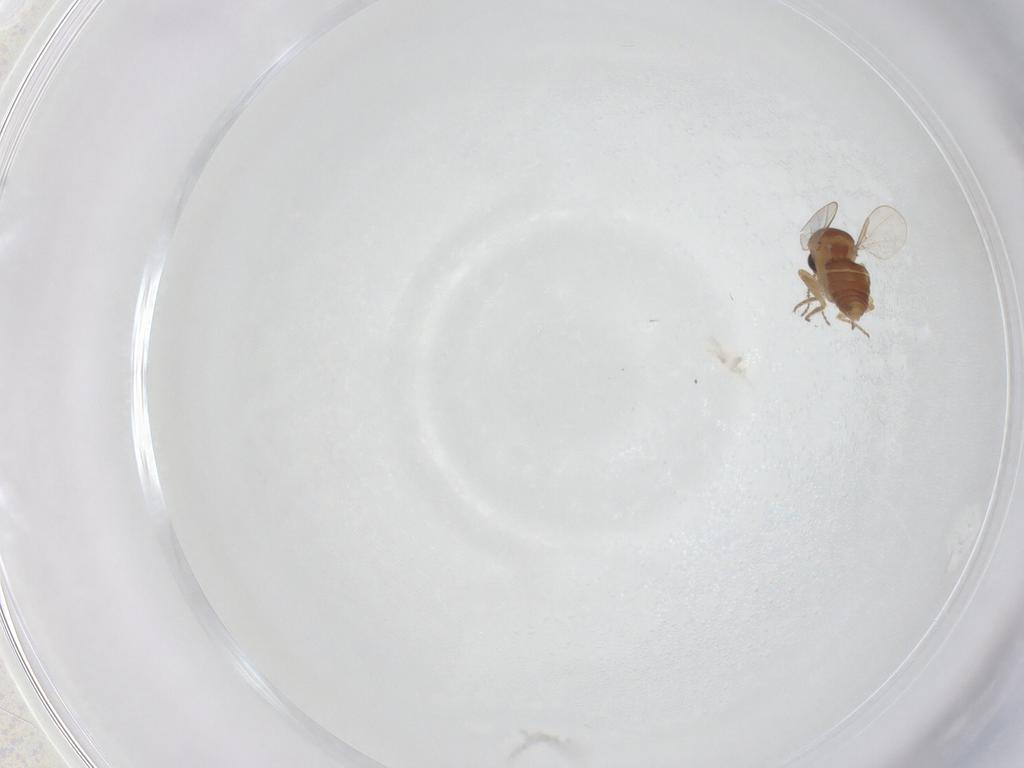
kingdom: Animalia
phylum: Arthropoda
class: Insecta
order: Diptera
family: Ceratopogonidae
